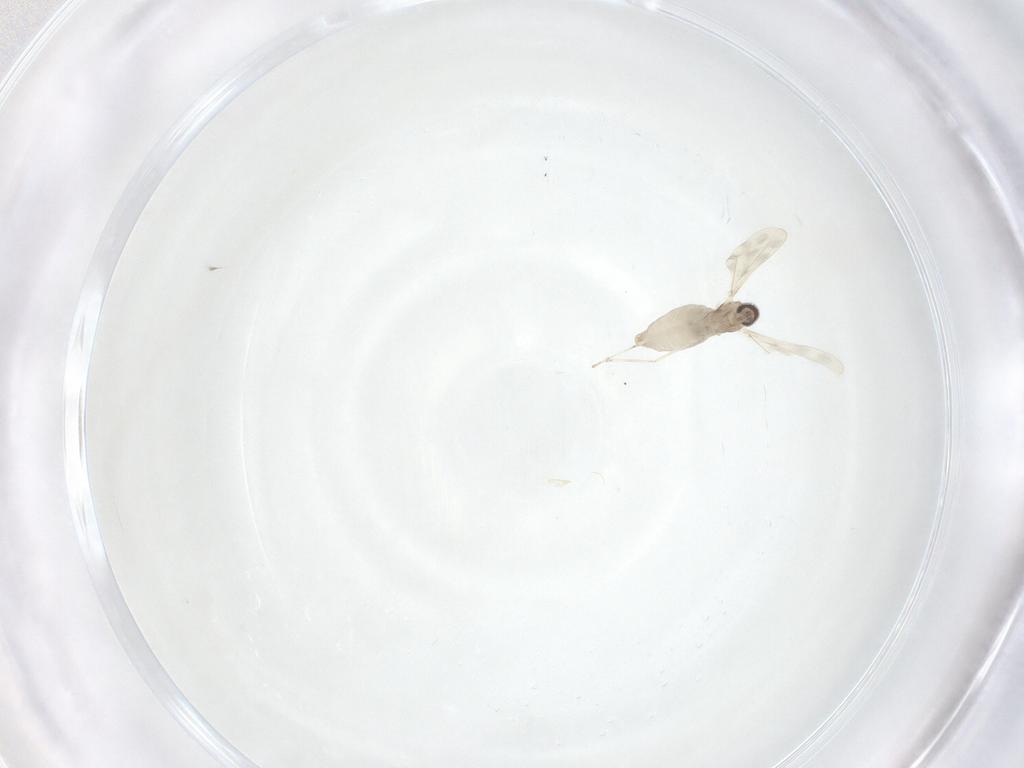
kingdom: Animalia
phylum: Arthropoda
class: Insecta
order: Diptera
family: Cecidomyiidae
